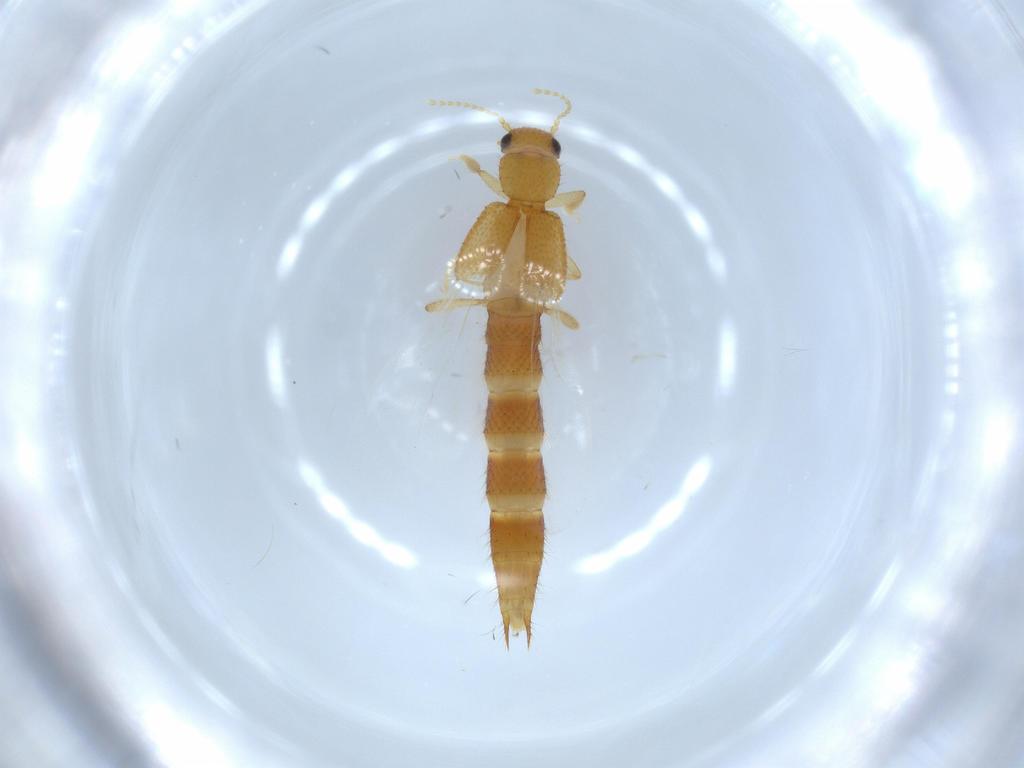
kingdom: Animalia
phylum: Arthropoda
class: Insecta
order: Coleoptera
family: Staphylinidae
